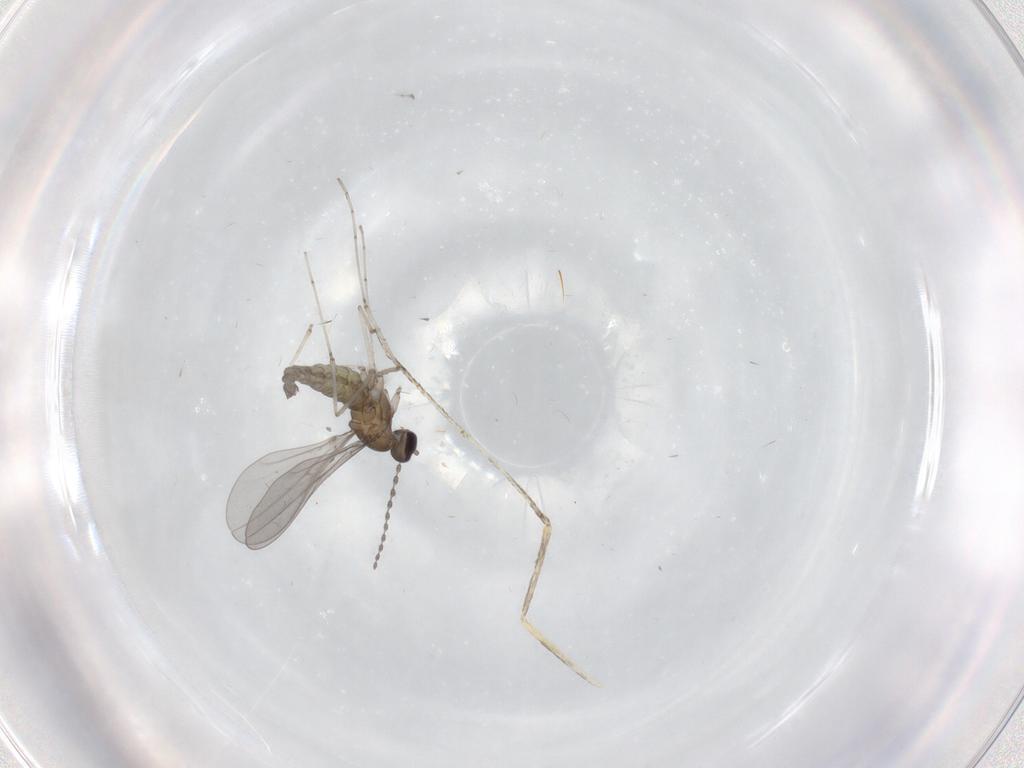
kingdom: Animalia
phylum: Arthropoda
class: Insecta
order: Diptera
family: Cecidomyiidae
